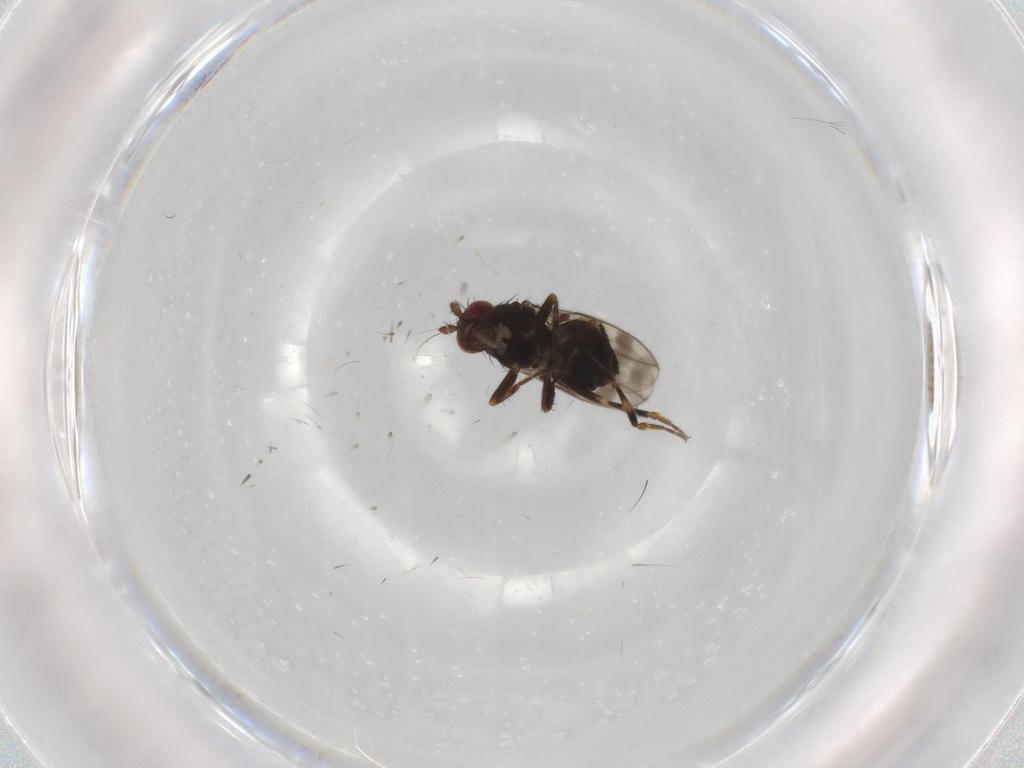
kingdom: Animalia
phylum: Arthropoda
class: Insecta
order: Diptera
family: Sphaeroceridae
